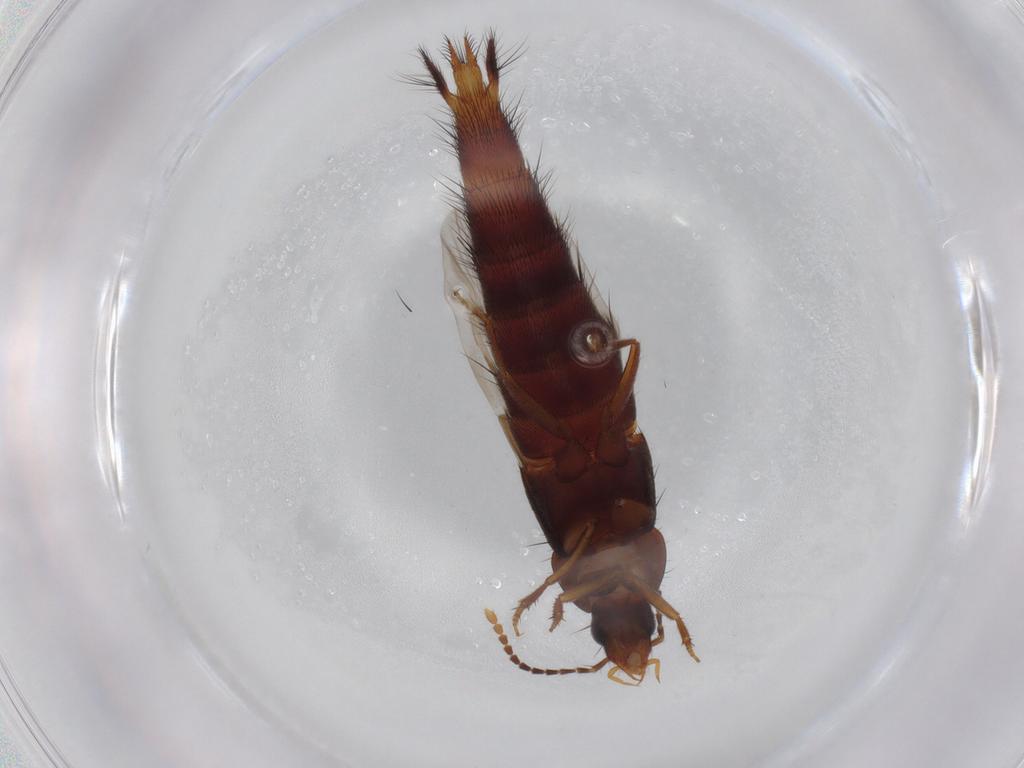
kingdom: Animalia
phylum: Arthropoda
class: Insecta
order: Coleoptera
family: Staphylinidae
